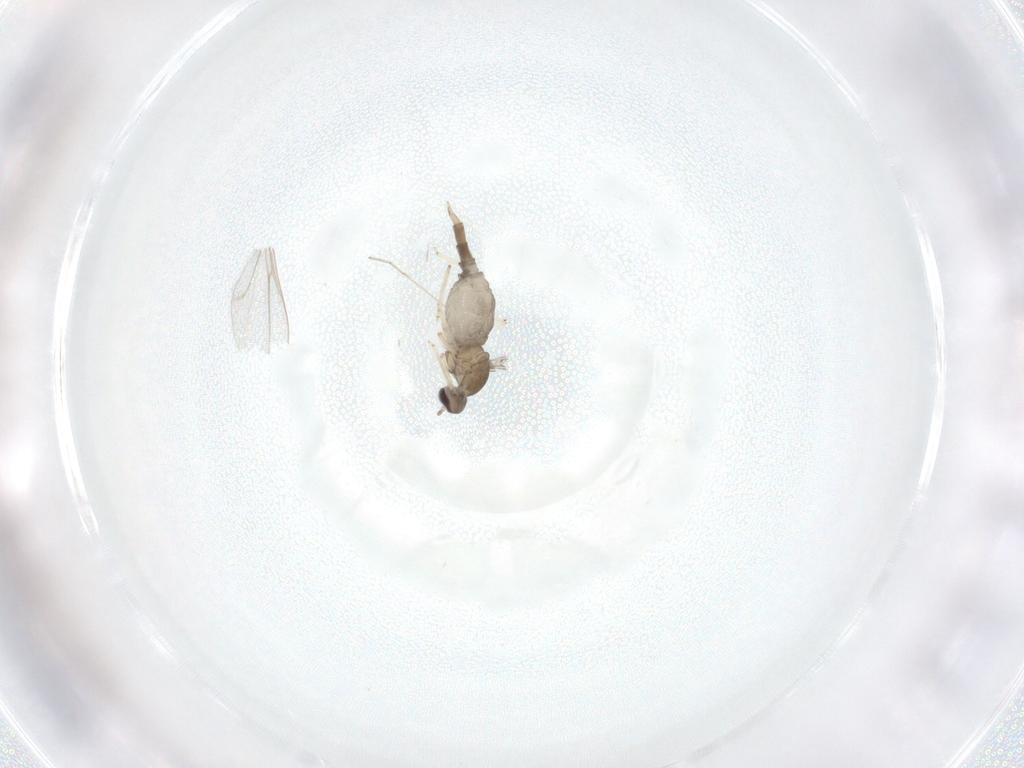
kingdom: Animalia
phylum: Arthropoda
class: Insecta
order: Diptera
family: Cecidomyiidae
